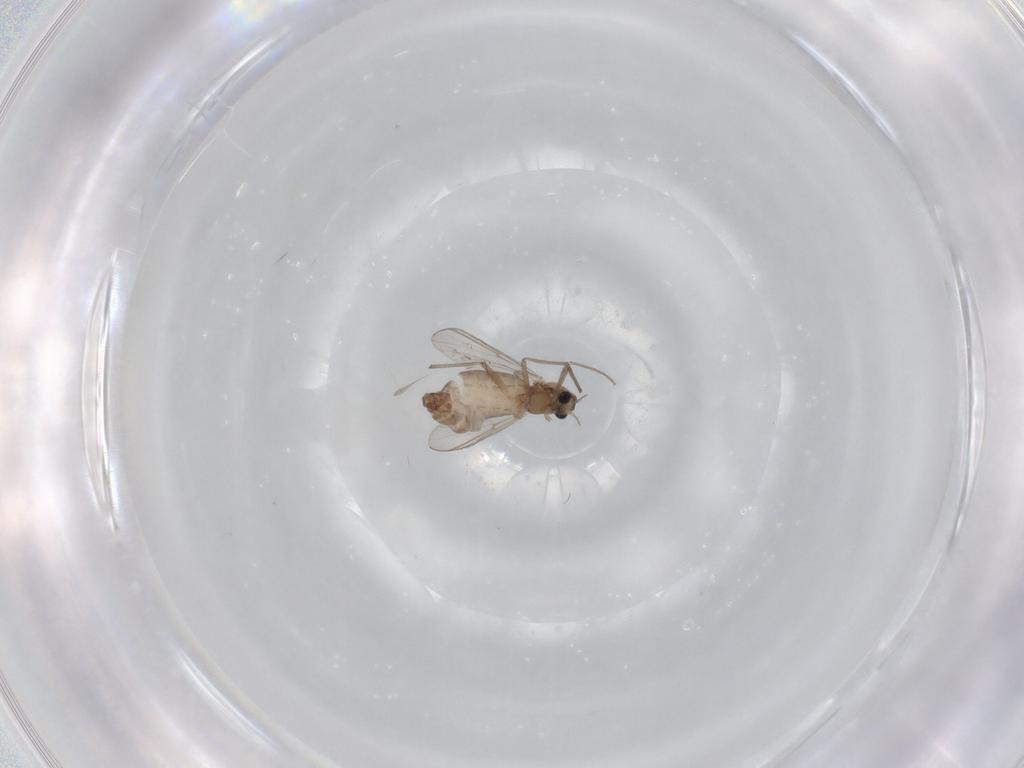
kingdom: Animalia
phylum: Arthropoda
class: Insecta
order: Diptera
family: Chironomidae
